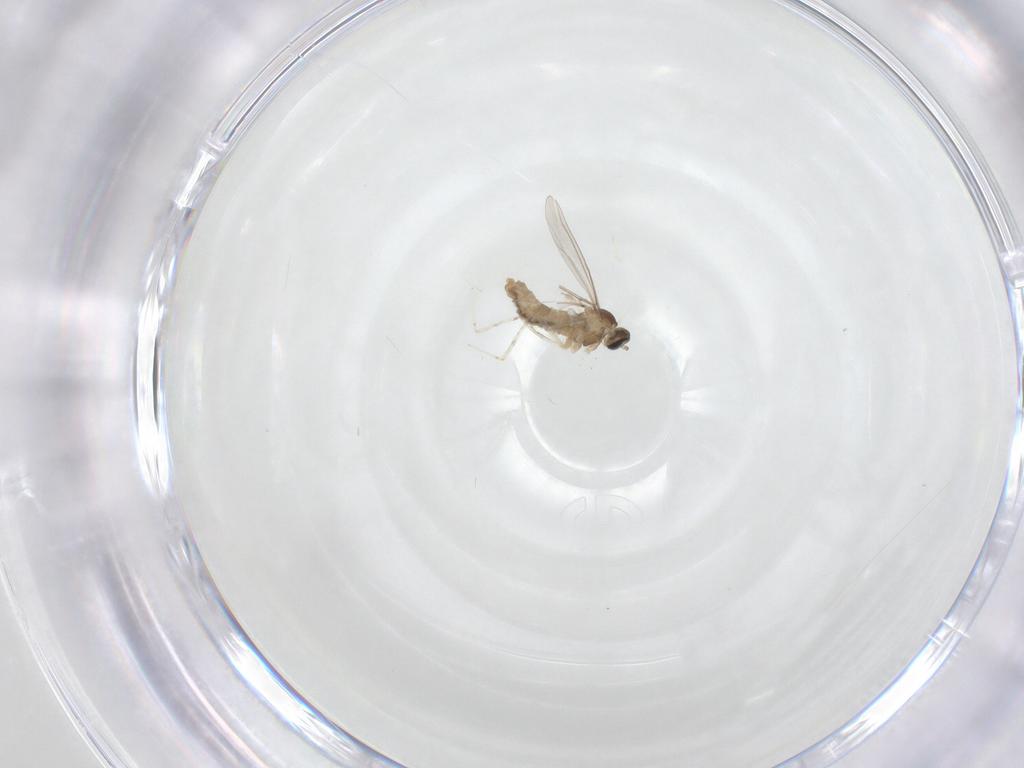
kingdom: Animalia
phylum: Arthropoda
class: Insecta
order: Diptera
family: Cecidomyiidae
